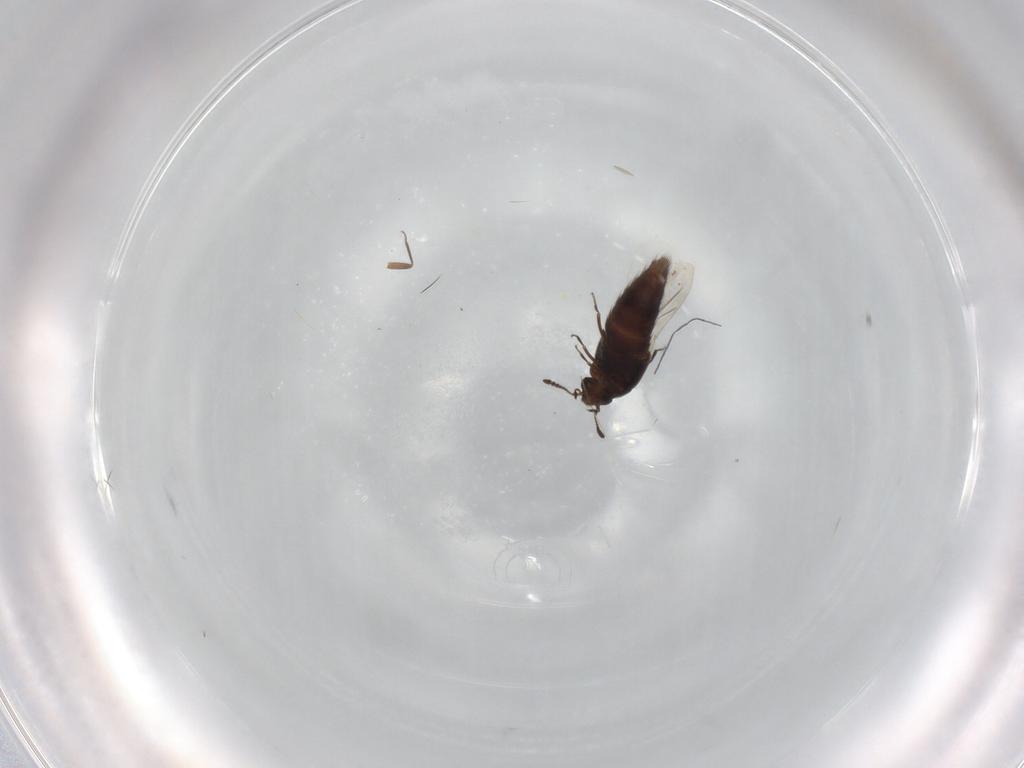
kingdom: Animalia
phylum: Arthropoda
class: Insecta
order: Coleoptera
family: Staphylinidae
